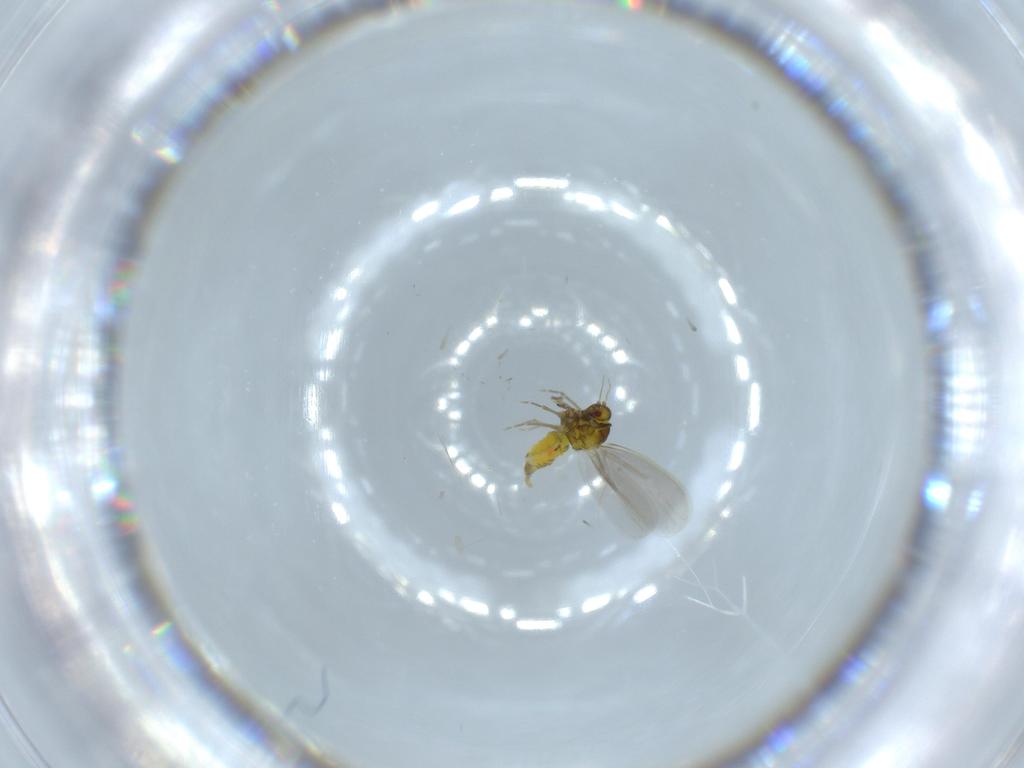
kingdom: Animalia
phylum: Arthropoda
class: Insecta
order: Hemiptera
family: Aleyrodidae
